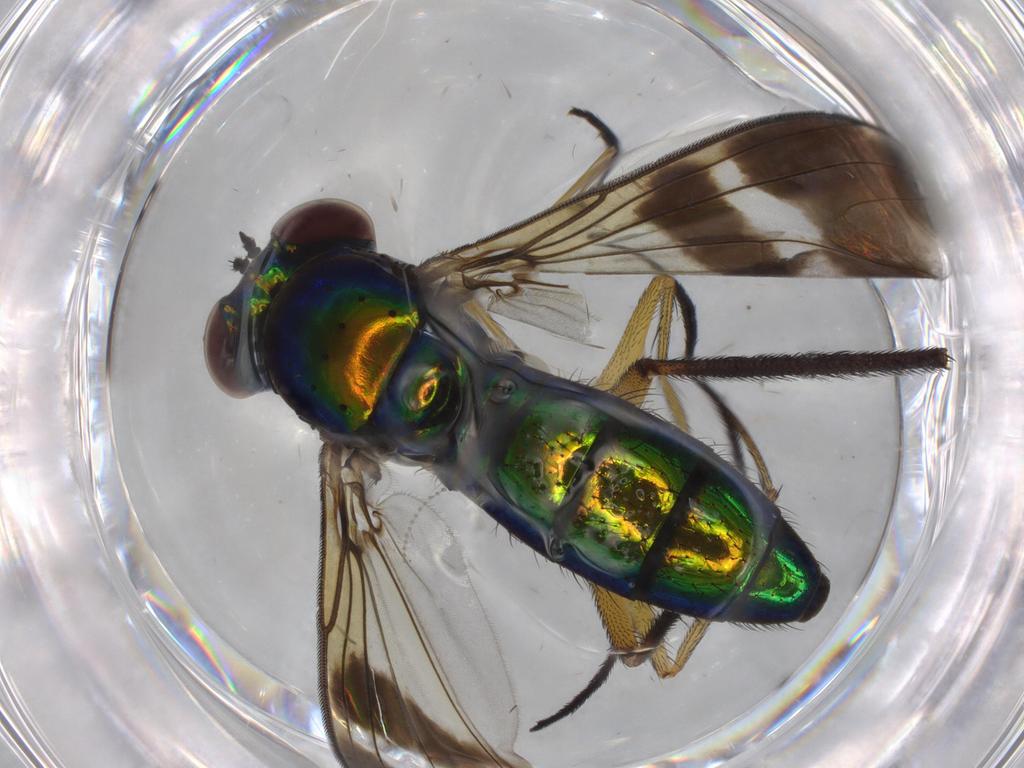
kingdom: Animalia
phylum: Arthropoda
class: Insecta
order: Diptera
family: Dolichopodidae
